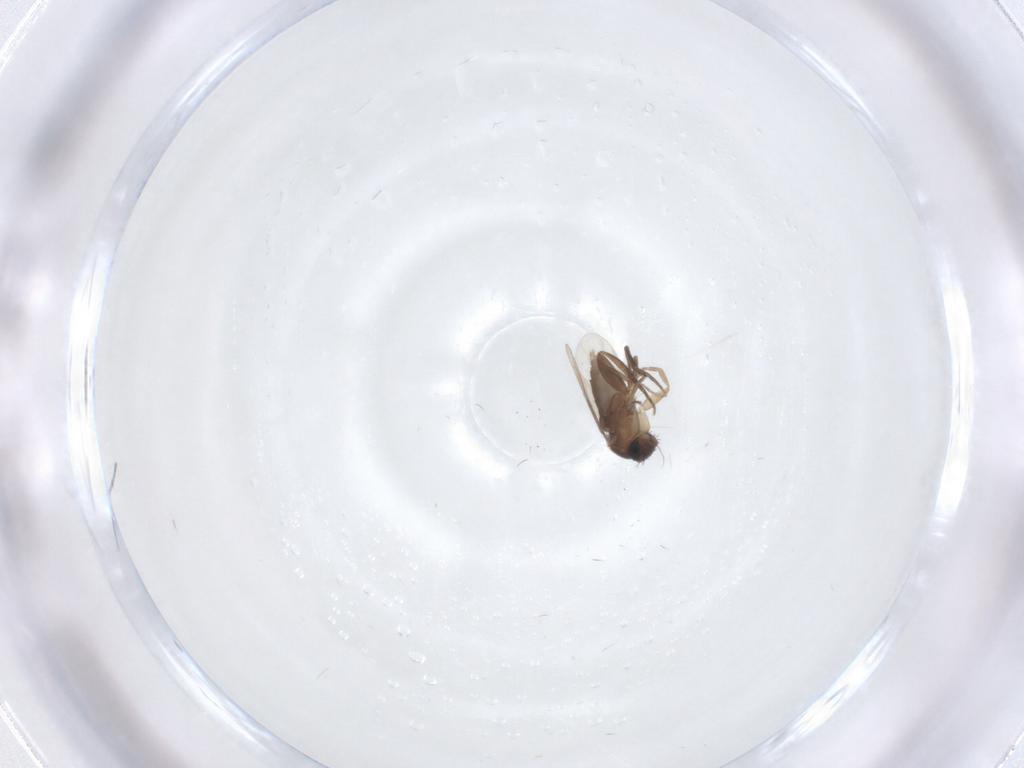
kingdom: Animalia
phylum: Arthropoda
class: Insecta
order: Diptera
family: Phoridae
